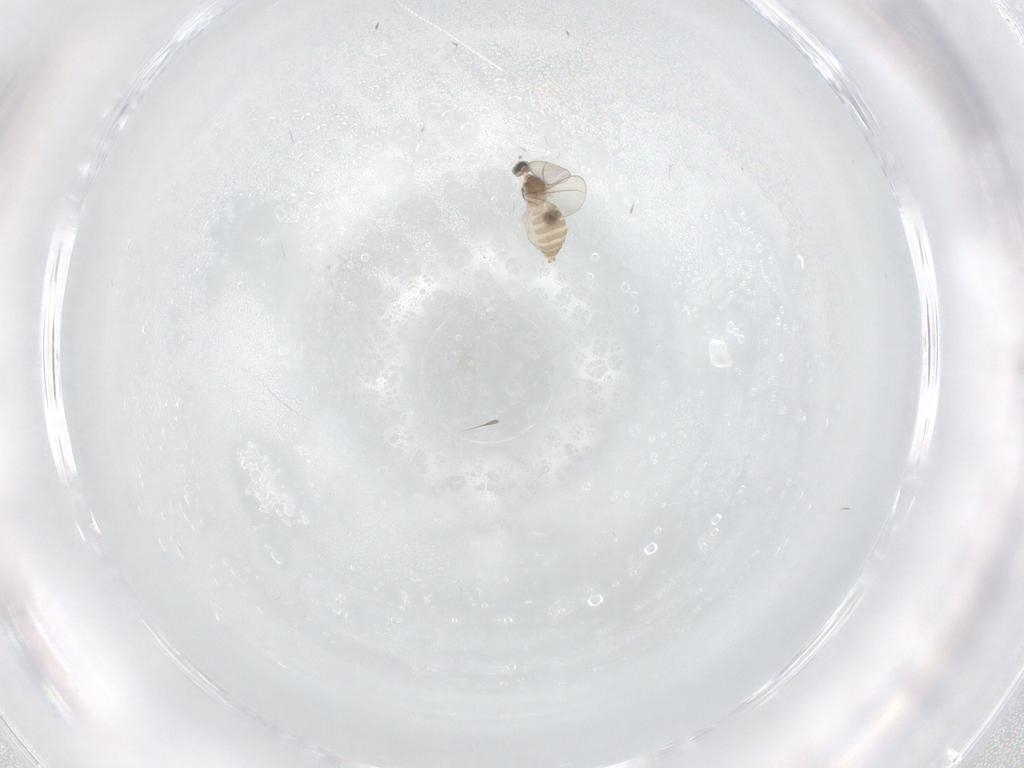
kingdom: Animalia
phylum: Arthropoda
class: Insecta
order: Diptera
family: Cecidomyiidae
